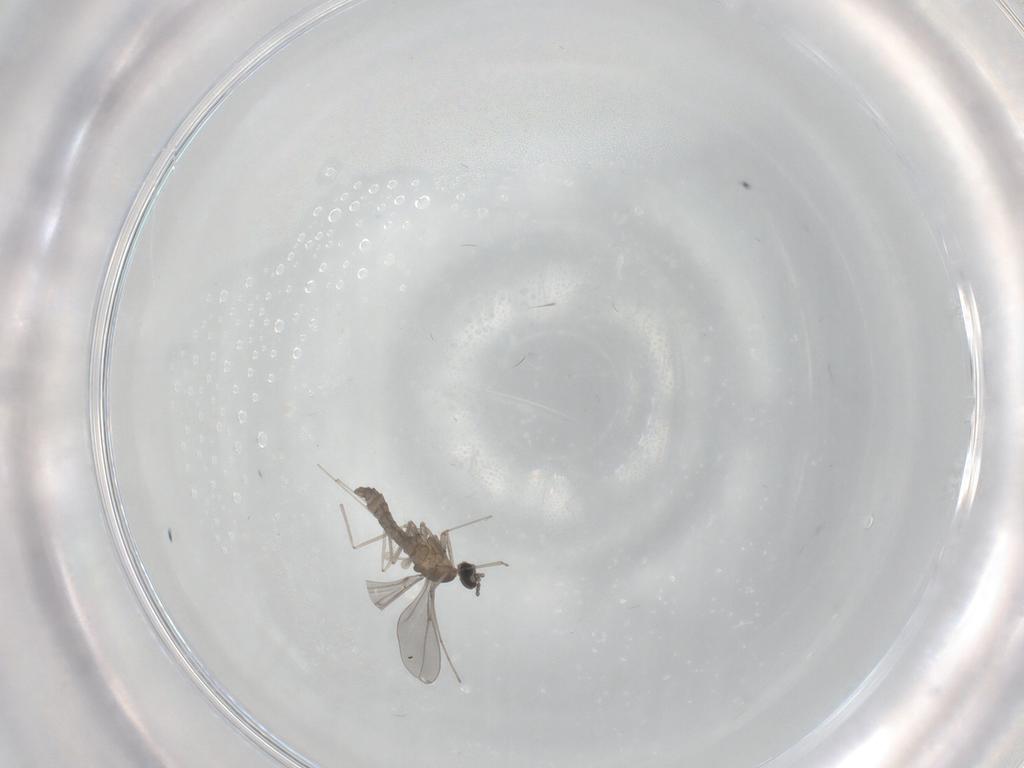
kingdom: Animalia
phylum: Arthropoda
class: Insecta
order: Diptera
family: Cecidomyiidae
